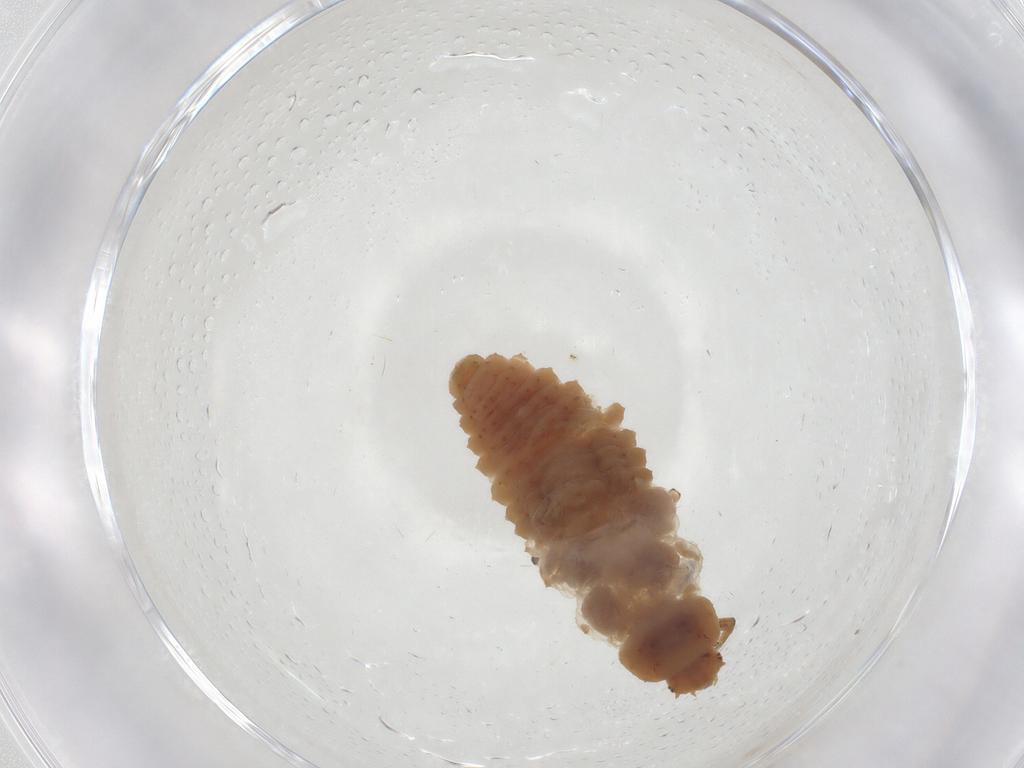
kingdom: Animalia
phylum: Arthropoda
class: Insecta
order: Coleoptera
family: Coccinellidae
